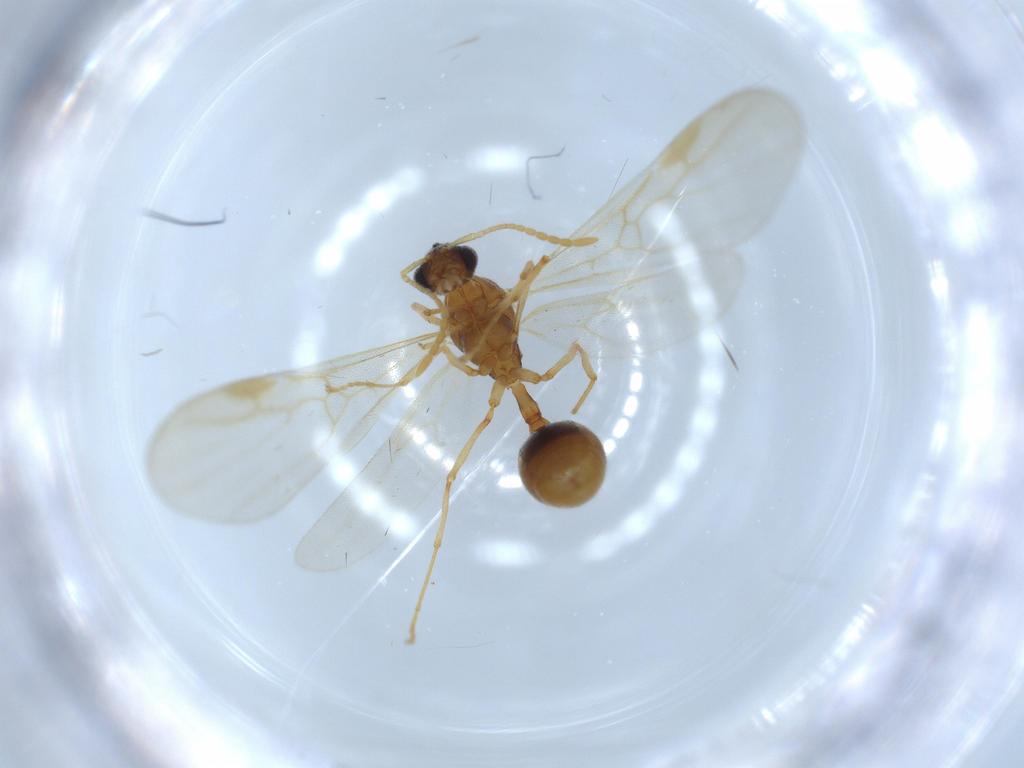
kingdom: Animalia
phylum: Arthropoda
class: Insecta
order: Hymenoptera
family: Formicidae
